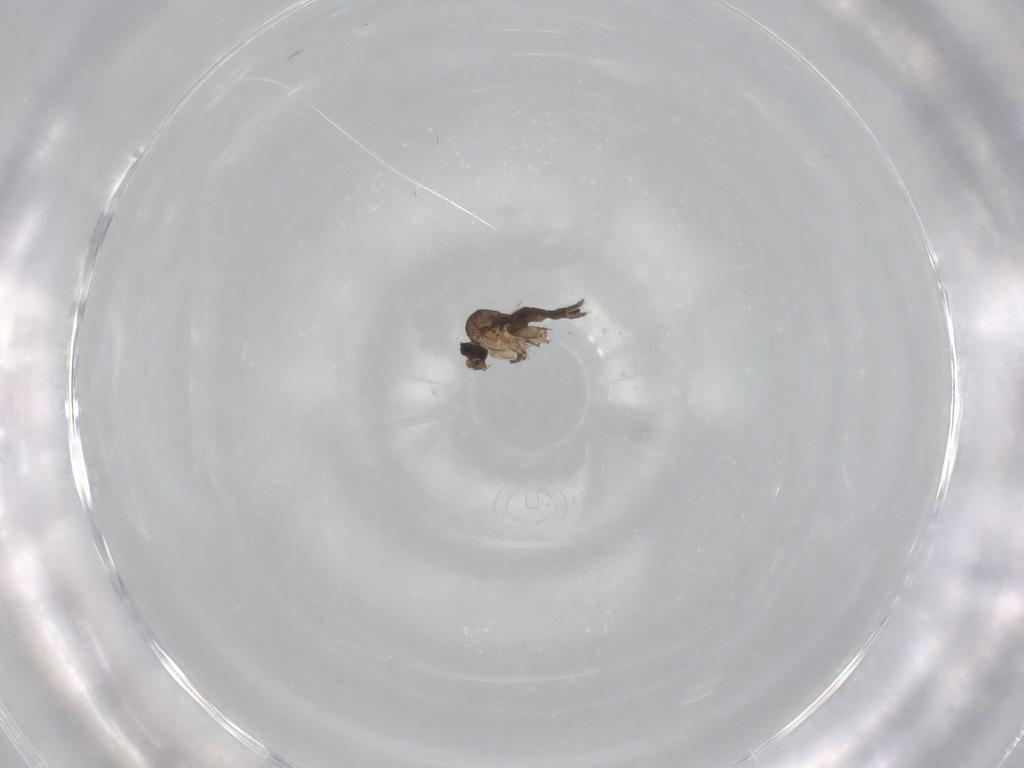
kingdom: Animalia
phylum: Arthropoda
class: Insecta
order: Diptera
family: Phoridae
